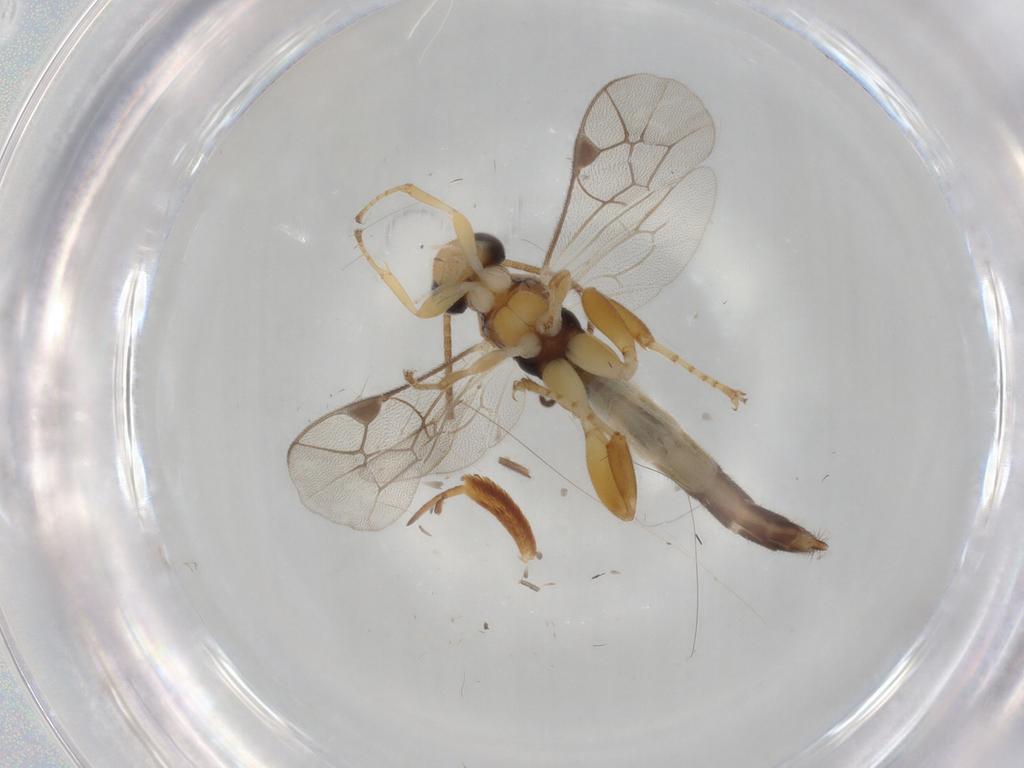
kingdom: Animalia
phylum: Arthropoda
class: Insecta
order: Hymenoptera
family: Ichneumonidae
